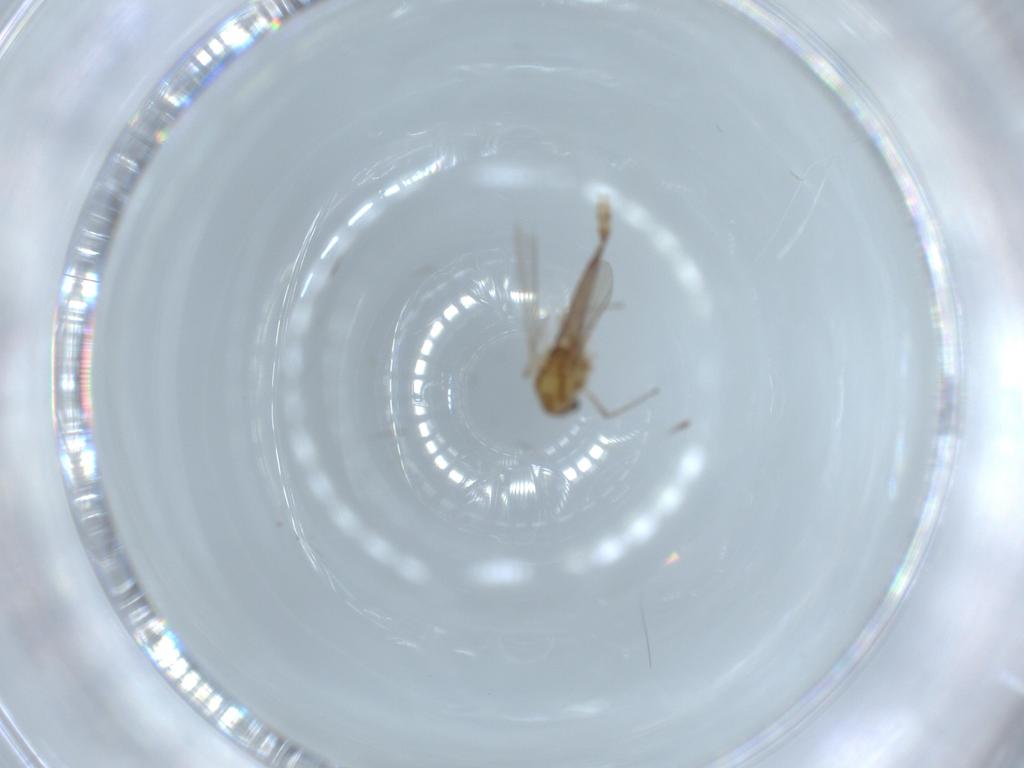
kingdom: Animalia
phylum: Arthropoda
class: Insecta
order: Diptera
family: Chironomidae
